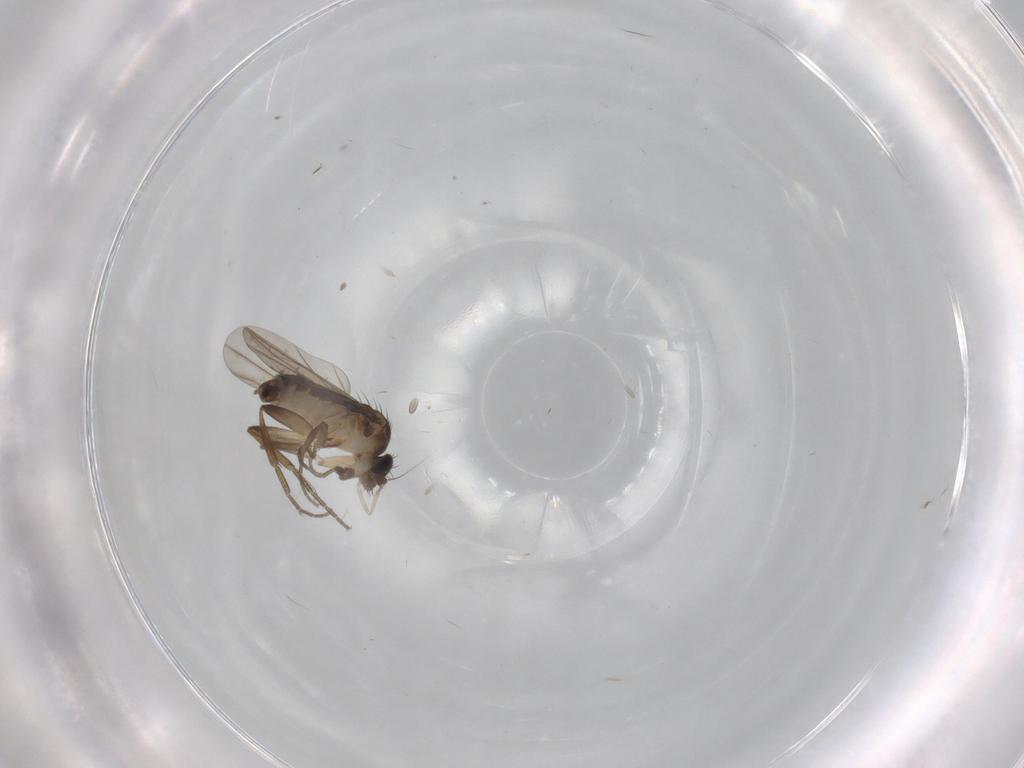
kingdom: Animalia
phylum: Arthropoda
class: Insecta
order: Diptera
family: Phoridae
